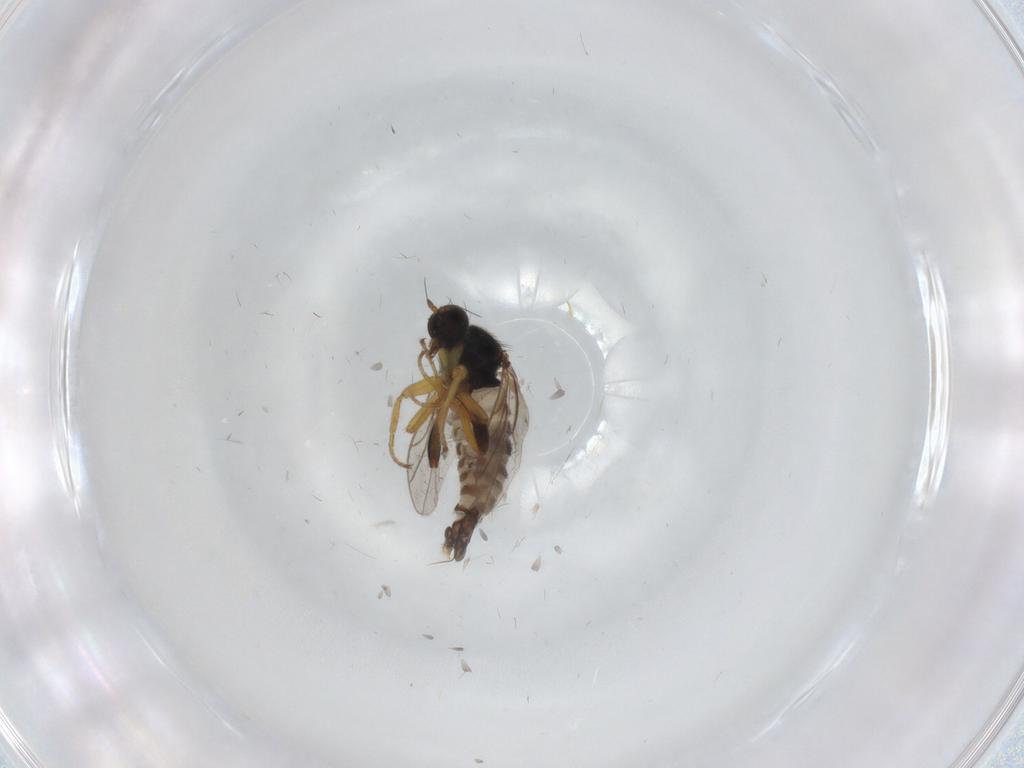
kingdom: Animalia
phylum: Arthropoda
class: Insecta
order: Diptera
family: Hybotidae
